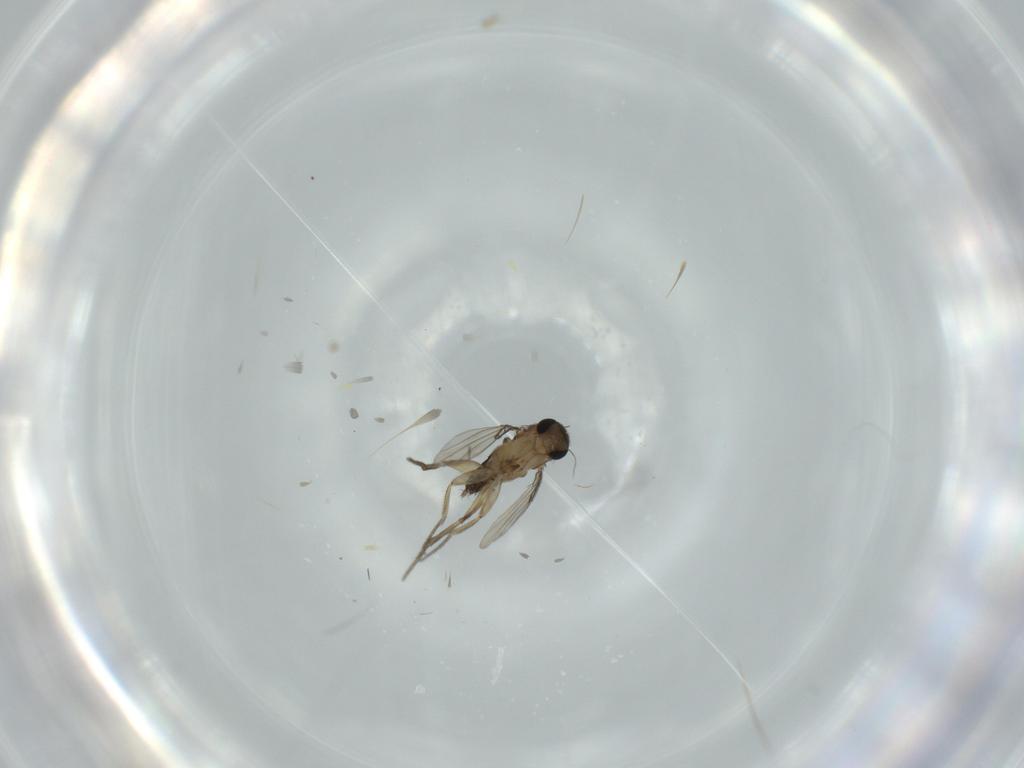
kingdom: Animalia
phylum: Arthropoda
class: Insecta
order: Diptera
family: Phoridae
